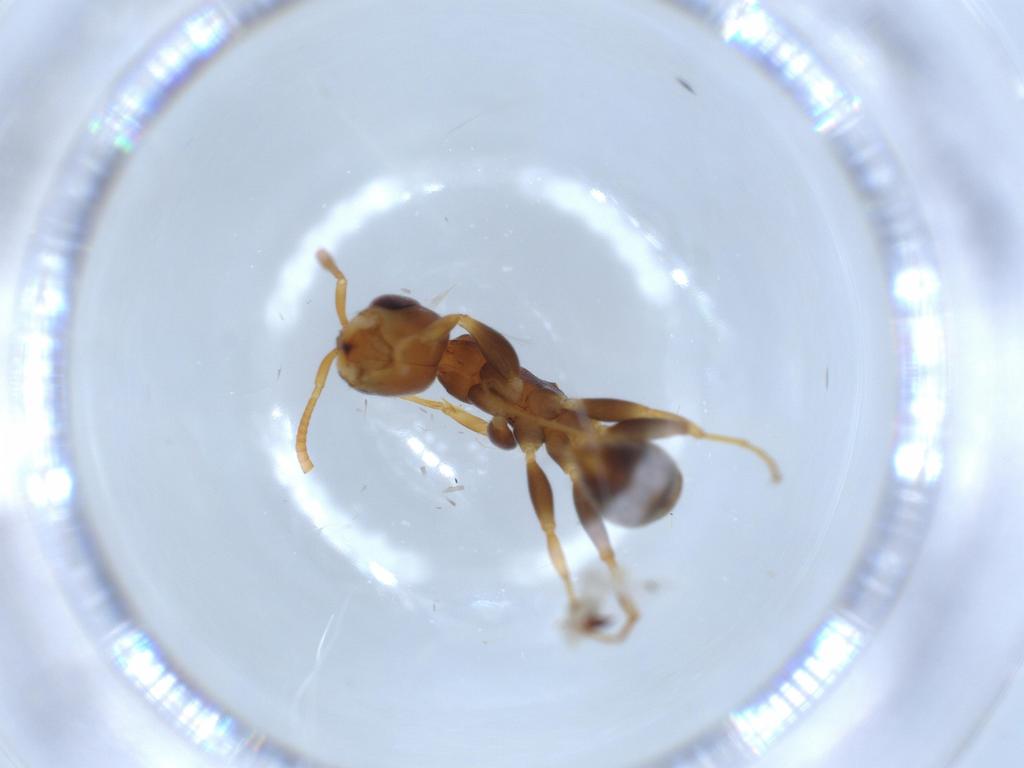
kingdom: Animalia
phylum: Arthropoda
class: Insecta
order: Hymenoptera
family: Formicidae
